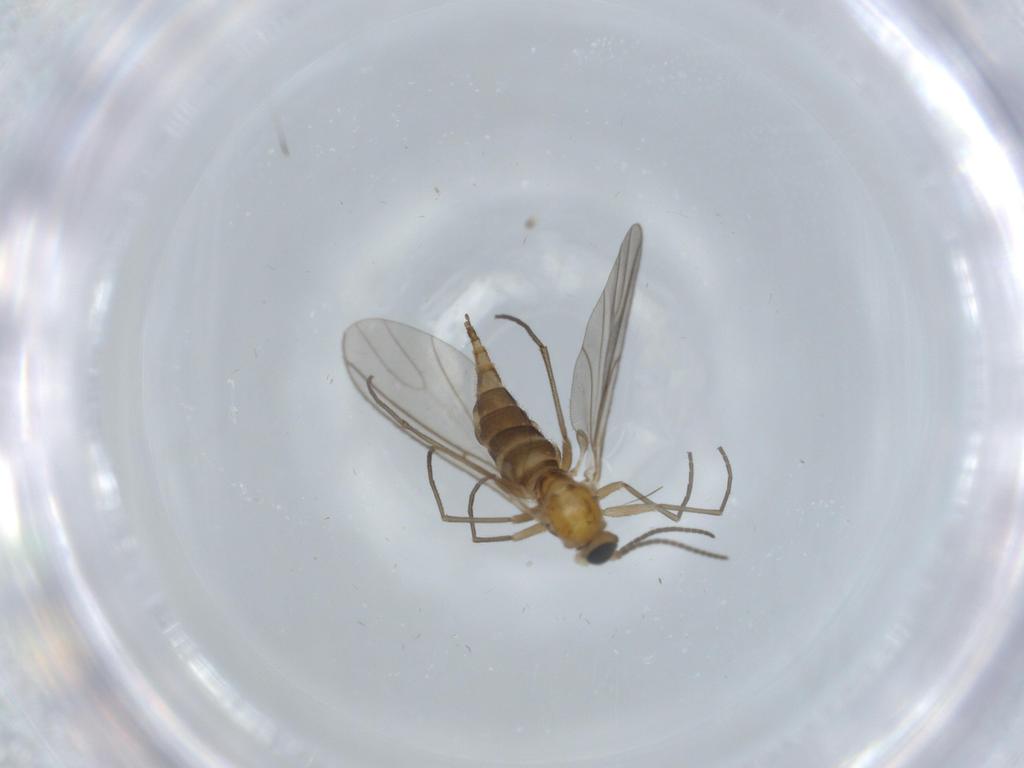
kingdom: Animalia
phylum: Arthropoda
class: Insecta
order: Diptera
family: Sciaridae
